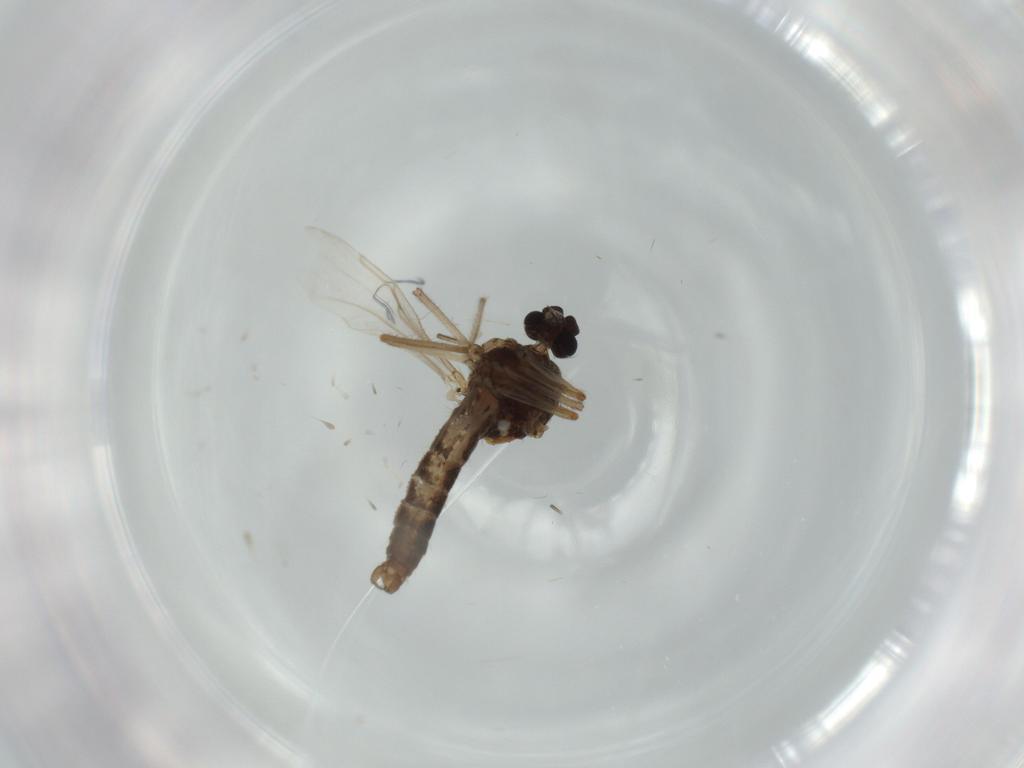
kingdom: Animalia
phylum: Arthropoda
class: Insecta
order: Diptera
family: Ceratopogonidae
